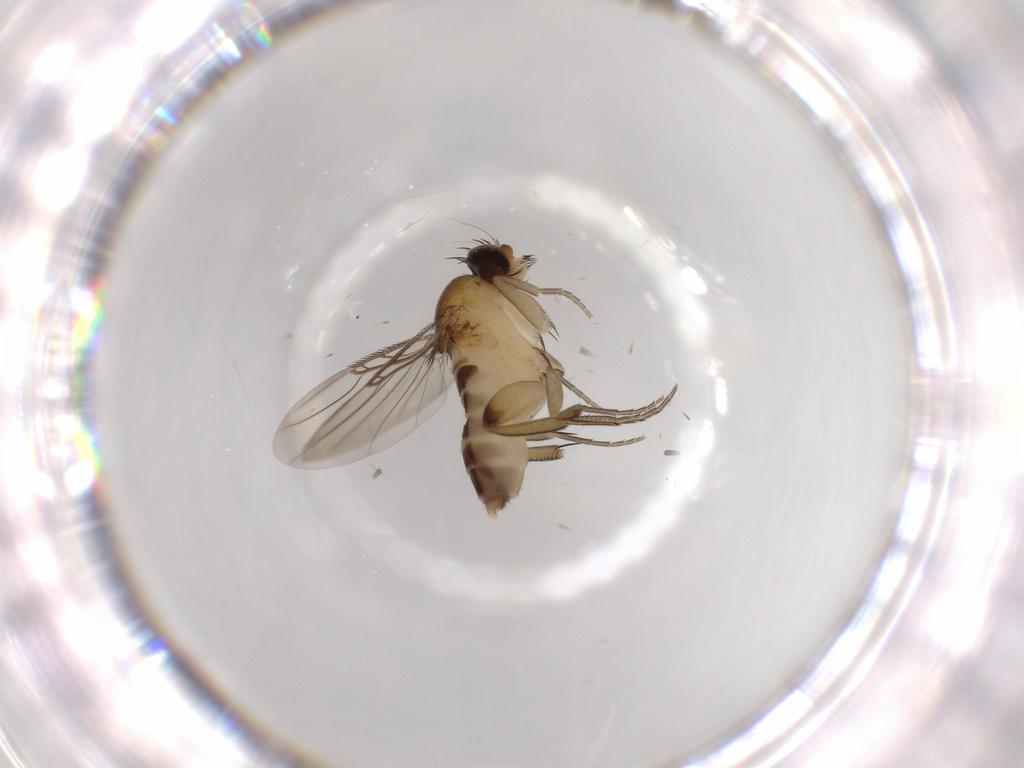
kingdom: Animalia
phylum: Arthropoda
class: Insecta
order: Diptera
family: Phoridae
